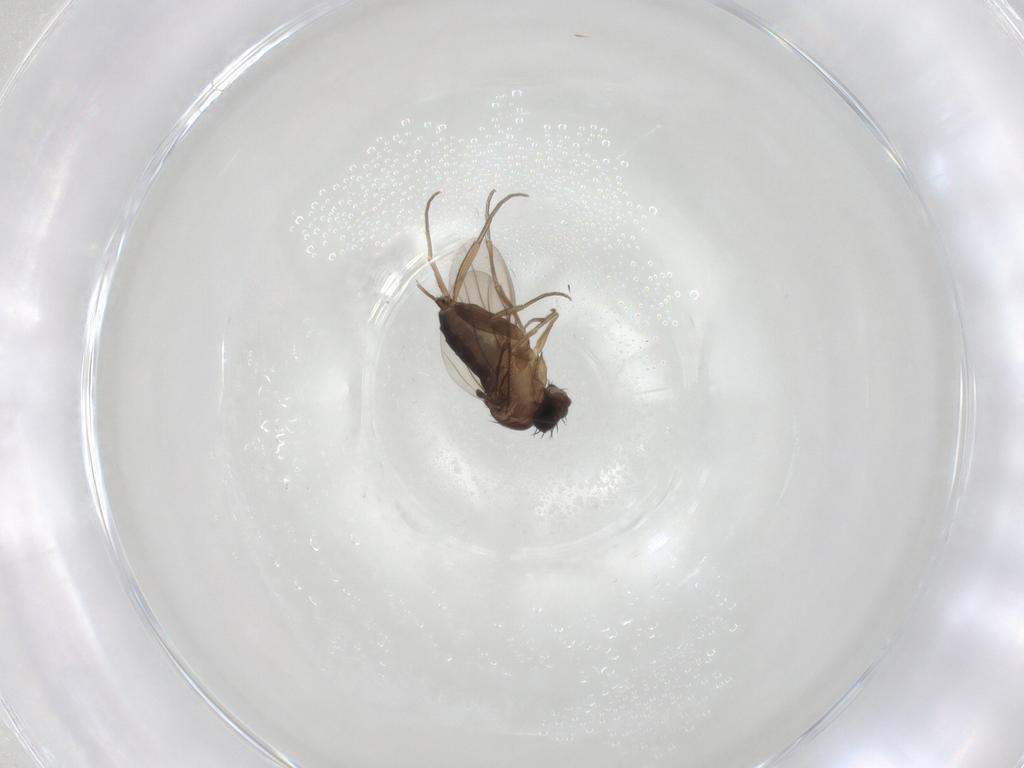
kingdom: Animalia
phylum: Arthropoda
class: Insecta
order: Diptera
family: Phoridae
